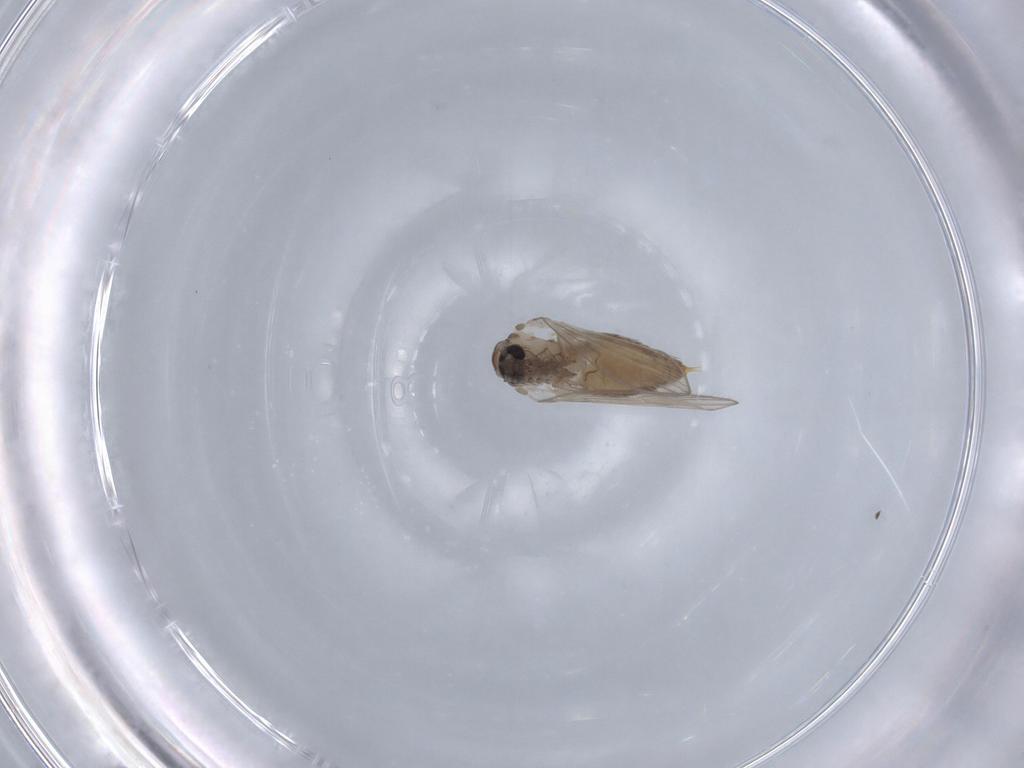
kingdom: Animalia
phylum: Arthropoda
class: Insecta
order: Diptera
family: Psychodidae
